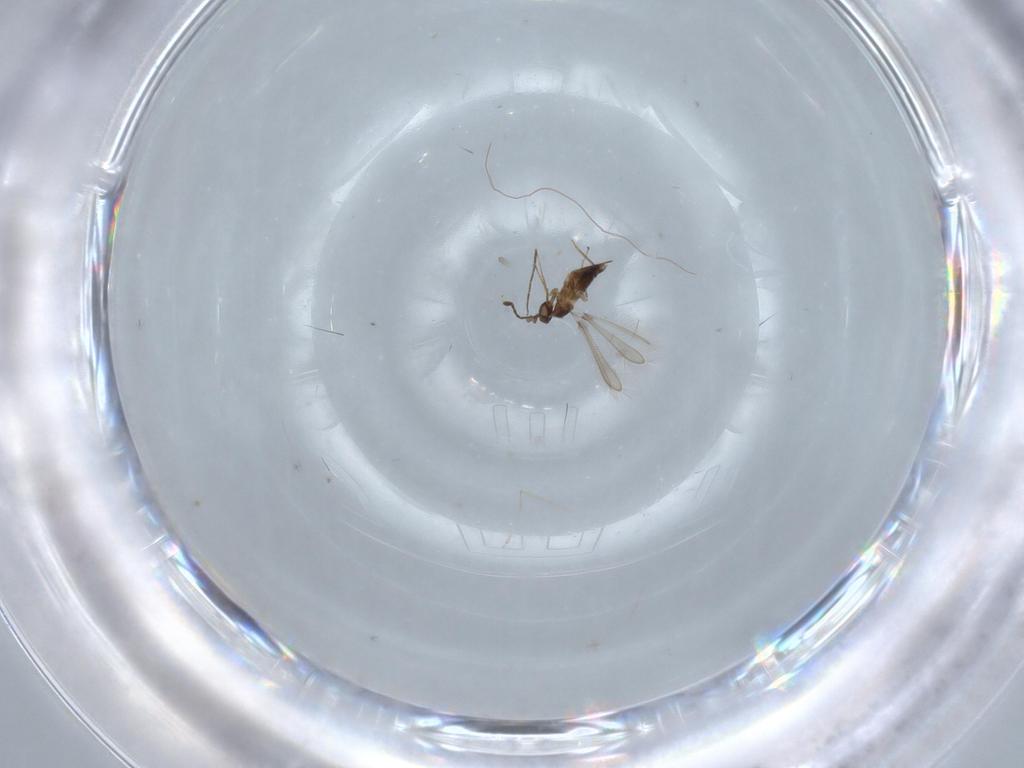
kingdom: Animalia
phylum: Arthropoda
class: Insecta
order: Hymenoptera
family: Mymaridae
